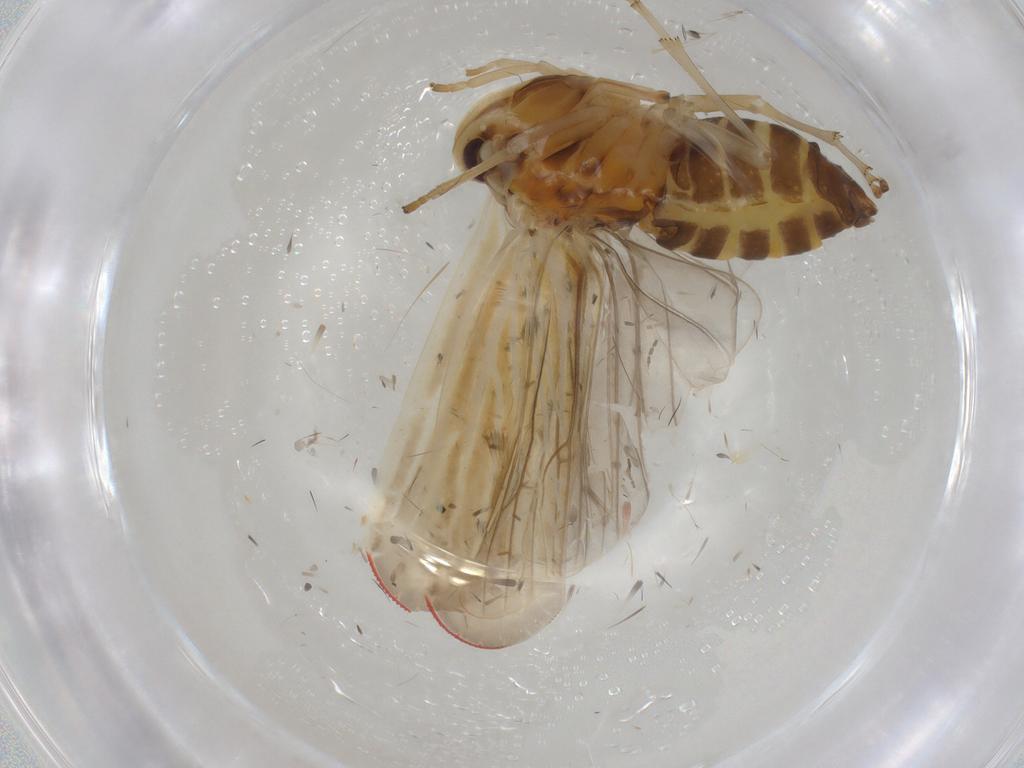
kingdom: Animalia
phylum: Arthropoda
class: Insecta
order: Hemiptera
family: Derbidae
